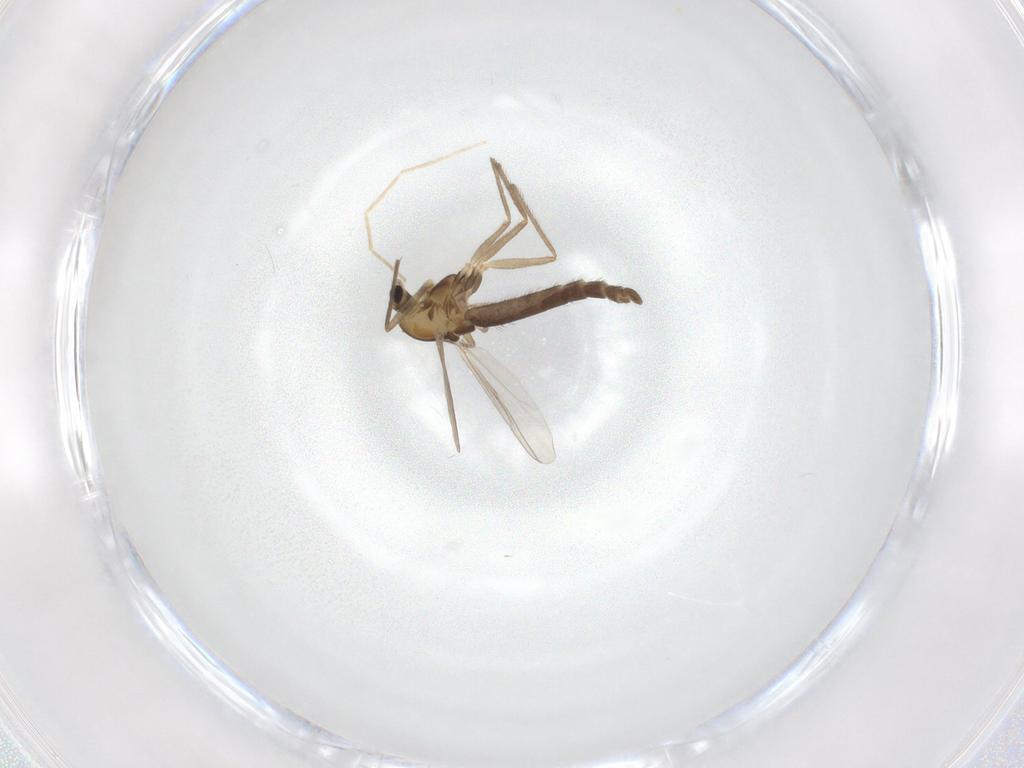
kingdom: Animalia
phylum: Arthropoda
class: Insecta
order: Diptera
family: Chironomidae
